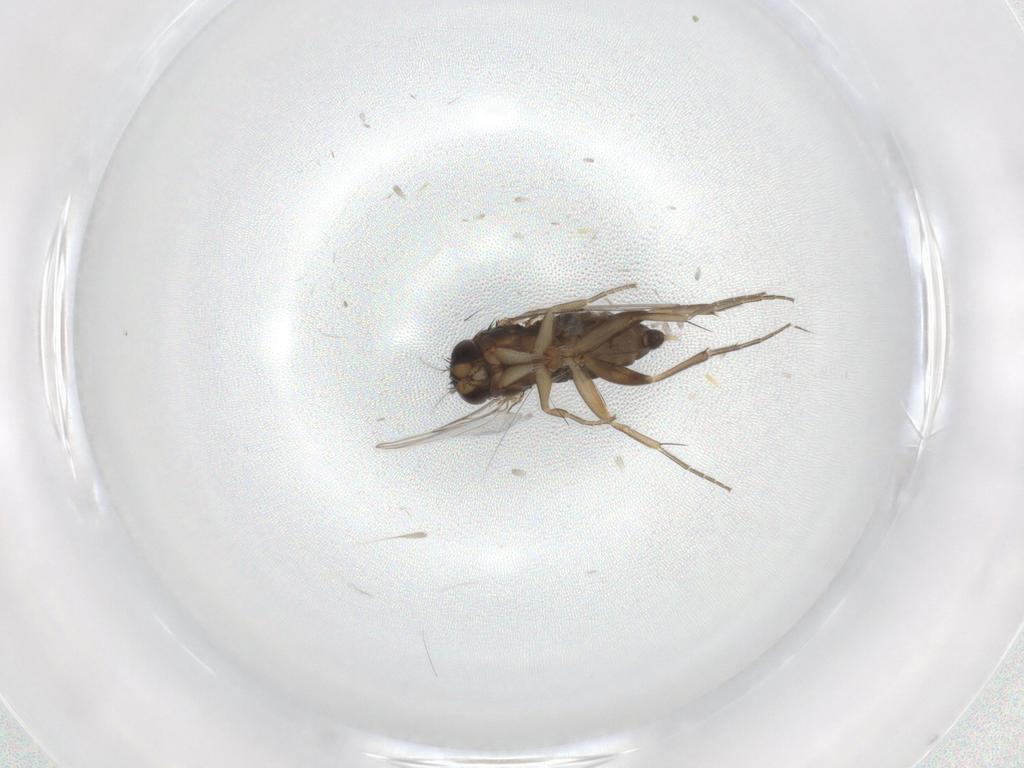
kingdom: Animalia
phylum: Arthropoda
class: Insecta
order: Diptera
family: Phoridae
